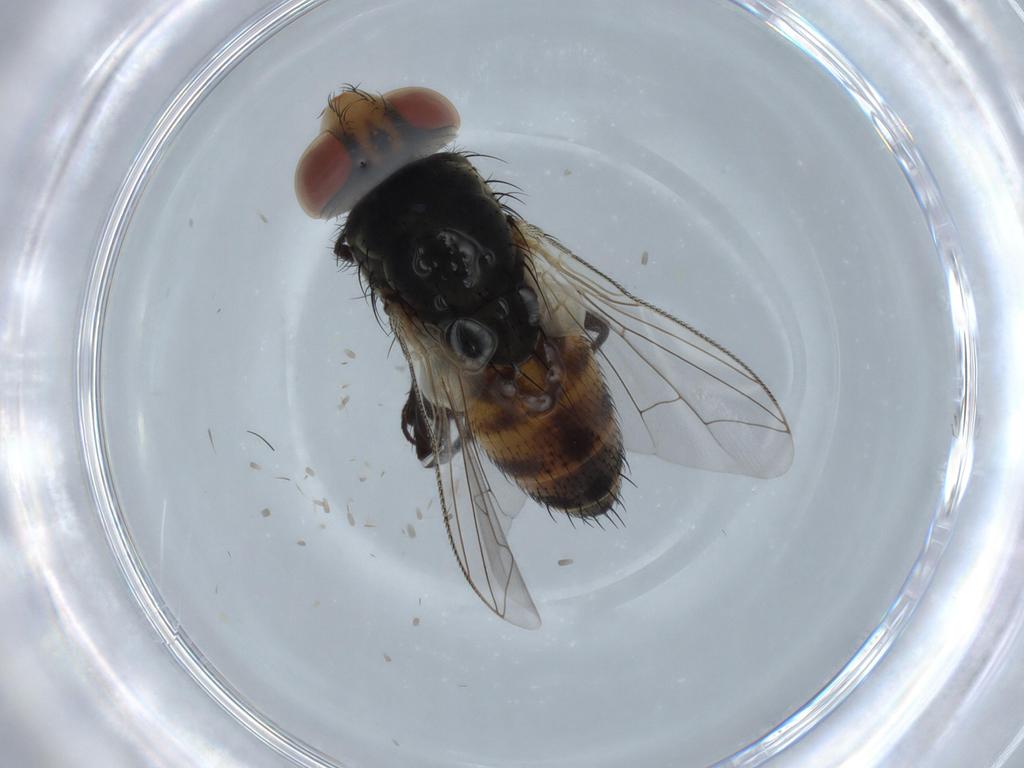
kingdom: Animalia
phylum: Arthropoda
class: Insecta
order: Diptera
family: Sarcophagidae
